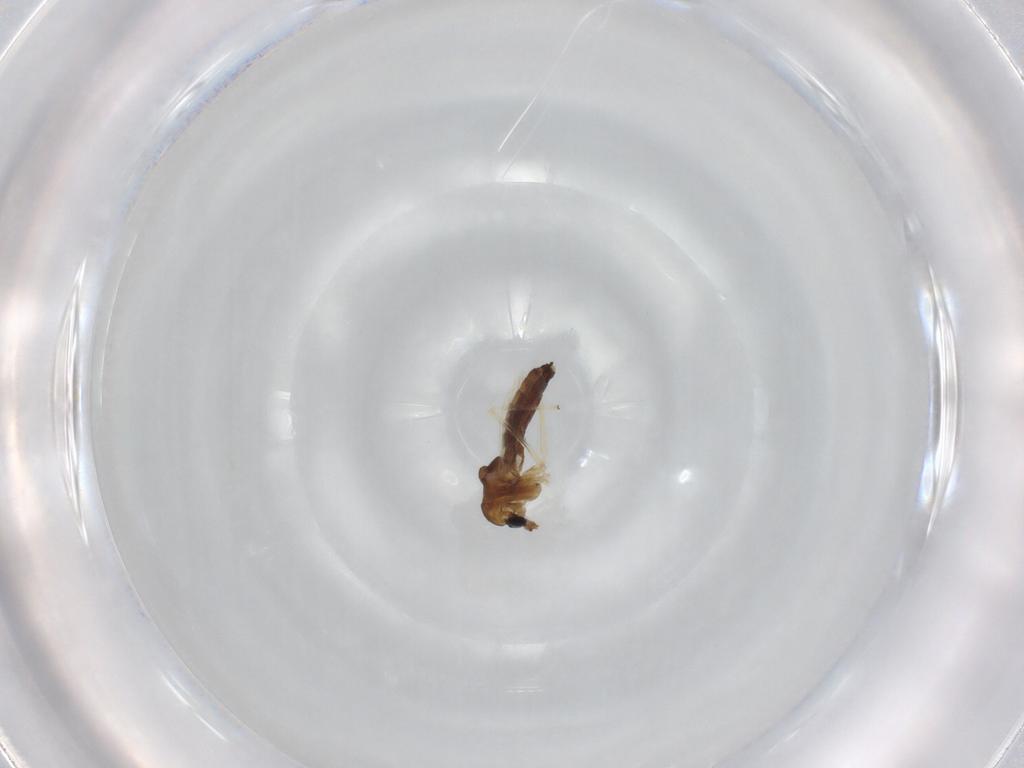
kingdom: Animalia
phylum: Arthropoda
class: Insecta
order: Diptera
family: Chironomidae
